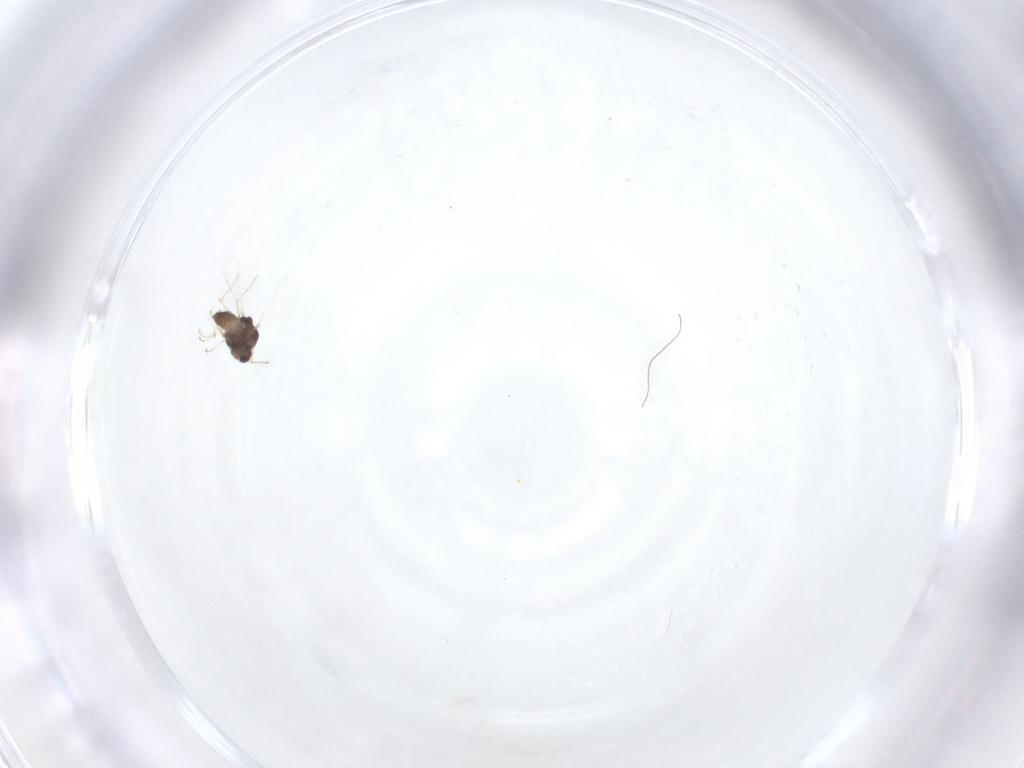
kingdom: Animalia
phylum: Arthropoda
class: Insecta
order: Diptera
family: Chironomidae
